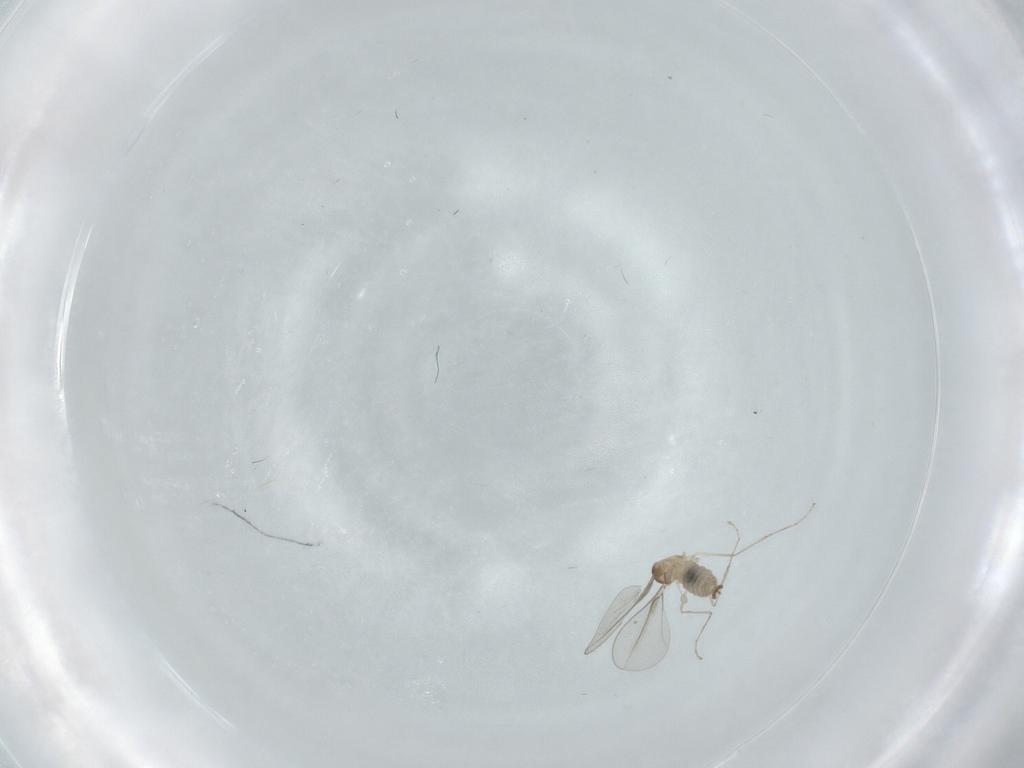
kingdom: Animalia
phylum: Arthropoda
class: Insecta
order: Diptera
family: Cecidomyiidae
